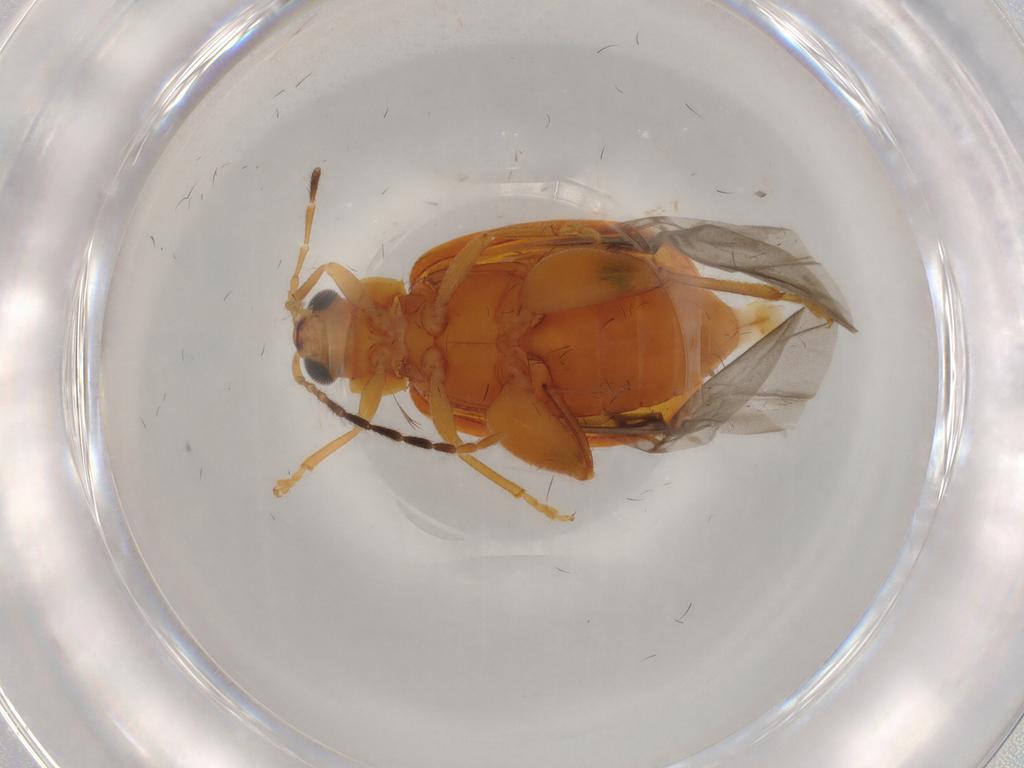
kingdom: Animalia
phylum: Arthropoda
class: Insecta
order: Coleoptera
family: Chrysomelidae
